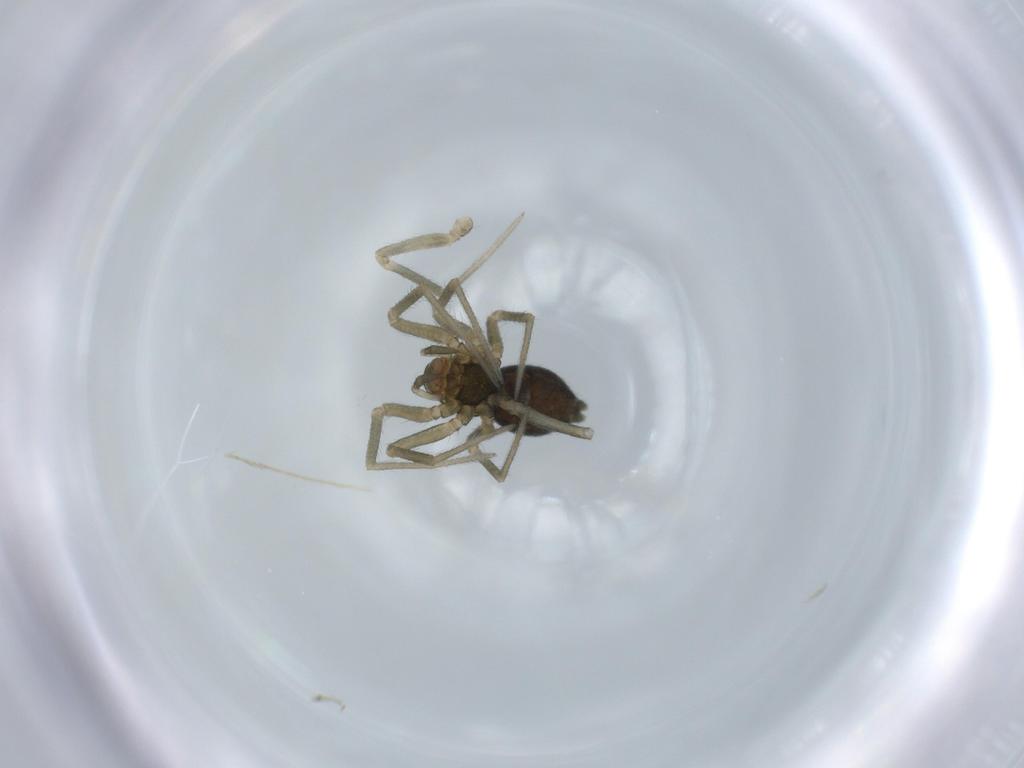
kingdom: Animalia
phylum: Arthropoda
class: Arachnida
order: Araneae
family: Linyphiidae
